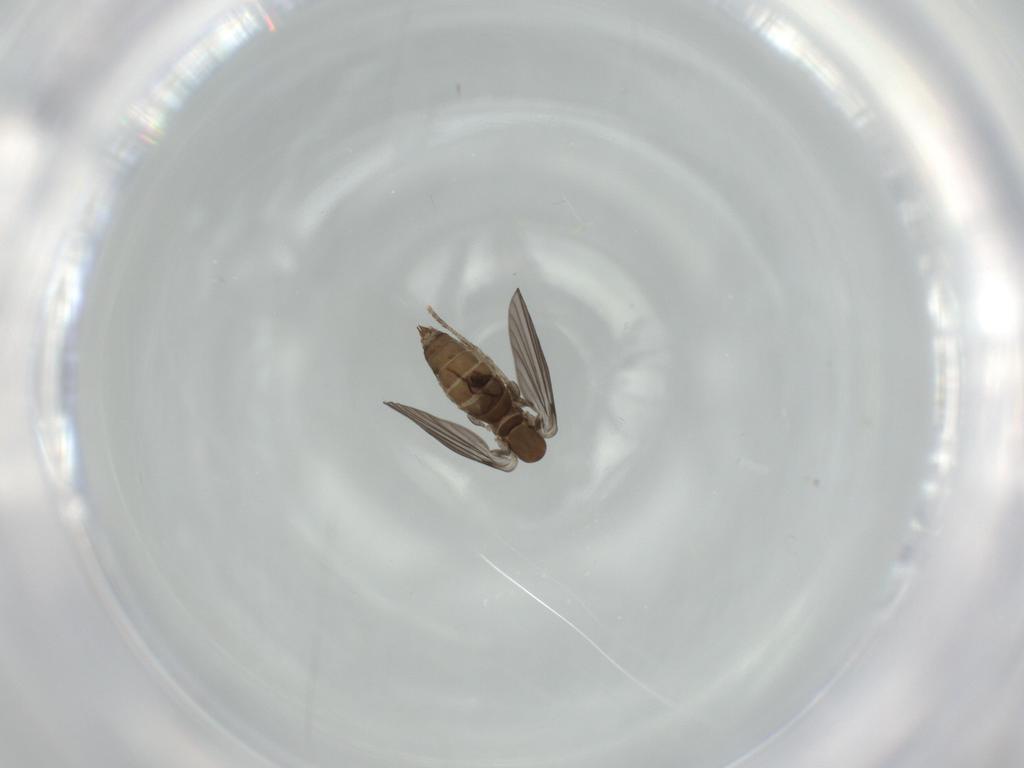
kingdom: Animalia
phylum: Arthropoda
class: Insecta
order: Diptera
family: Psychodidae
